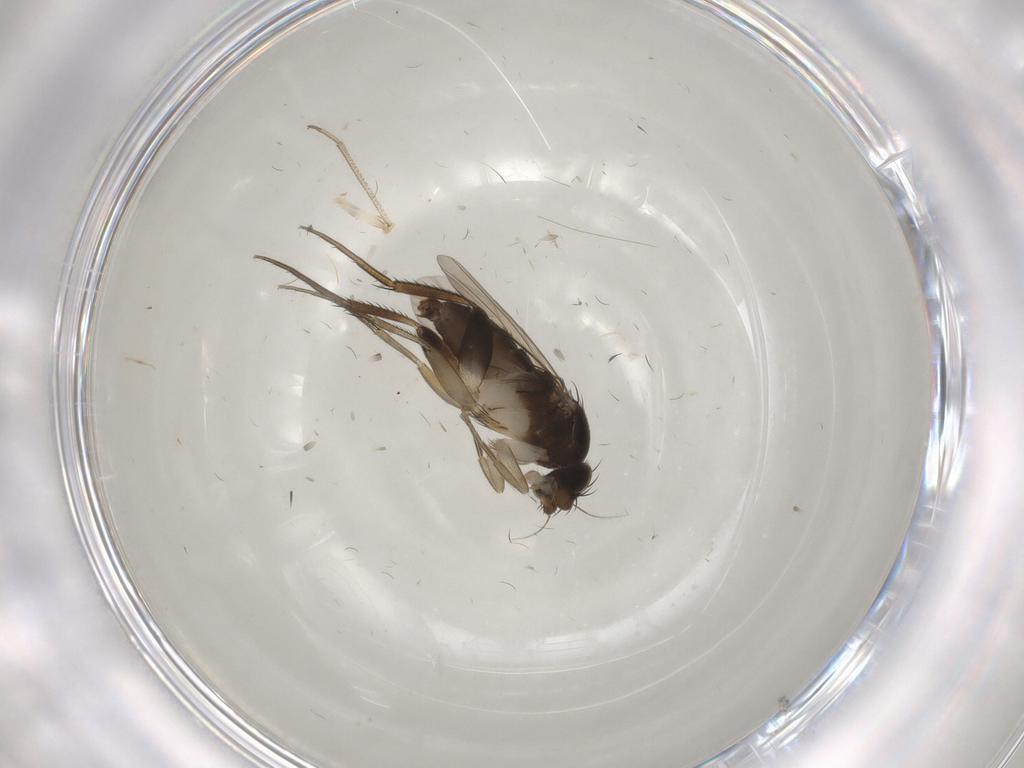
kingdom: Animalia
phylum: Arthropoda
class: Insecta
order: Diptera
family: Phoridae
